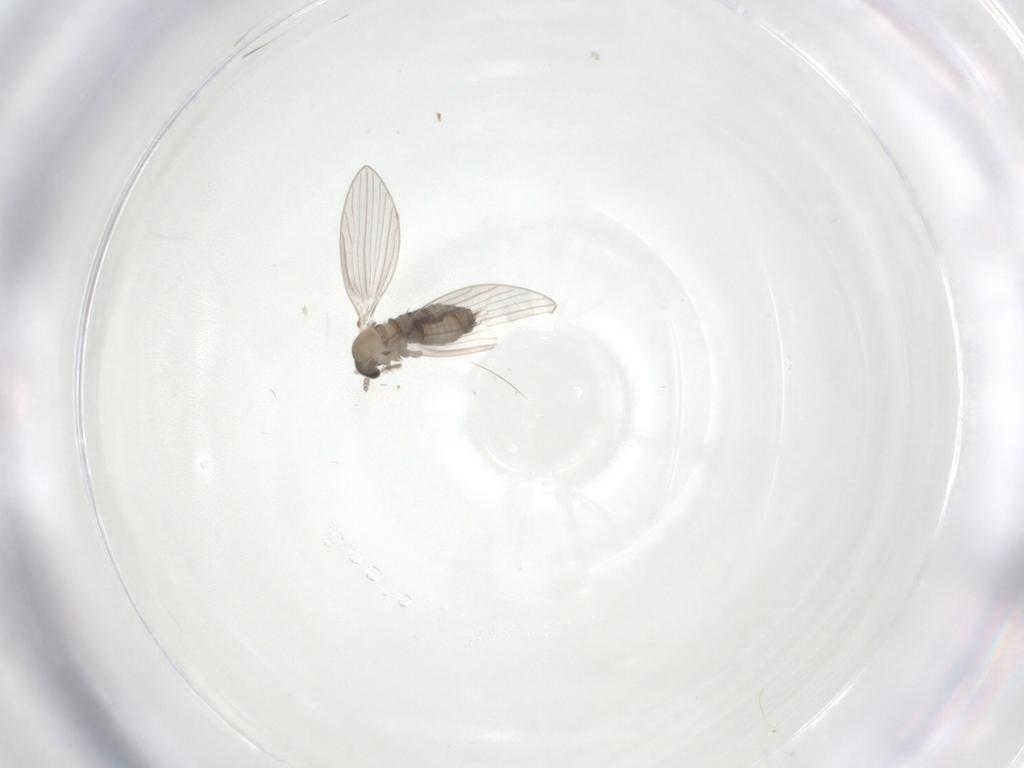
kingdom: Animalia
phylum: Arthropoda
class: Insecta
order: Diptera
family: Psychodidae
